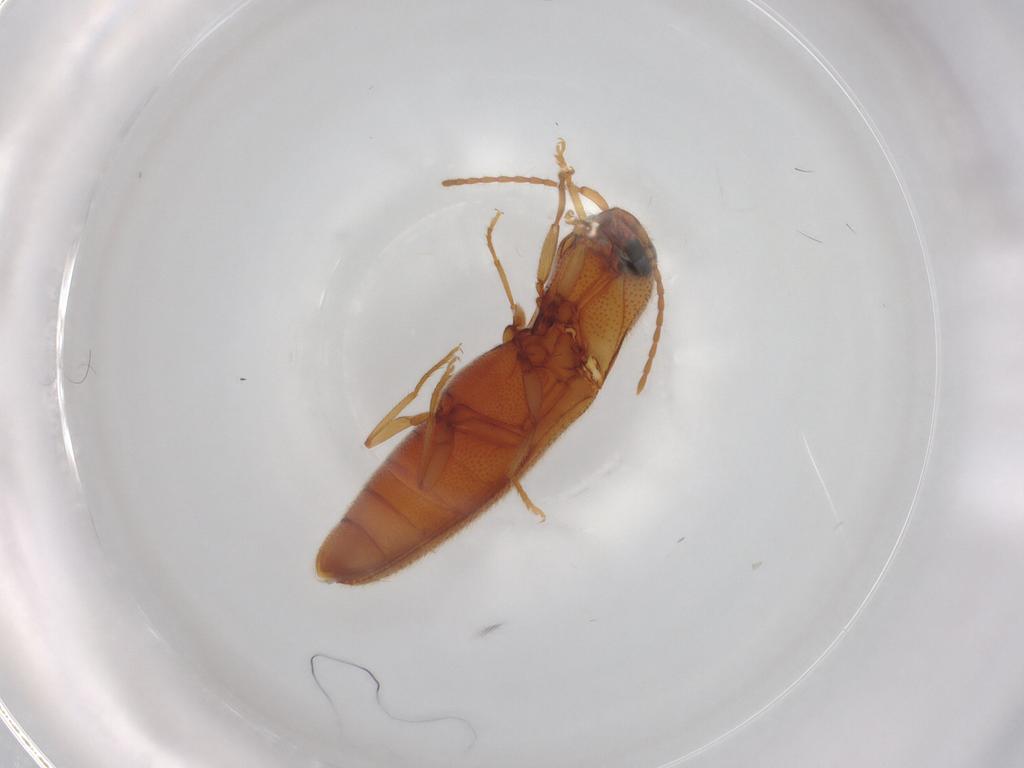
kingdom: Animalia
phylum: Arthropoda
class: Insecta
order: Coleoptera
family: Elateridae
